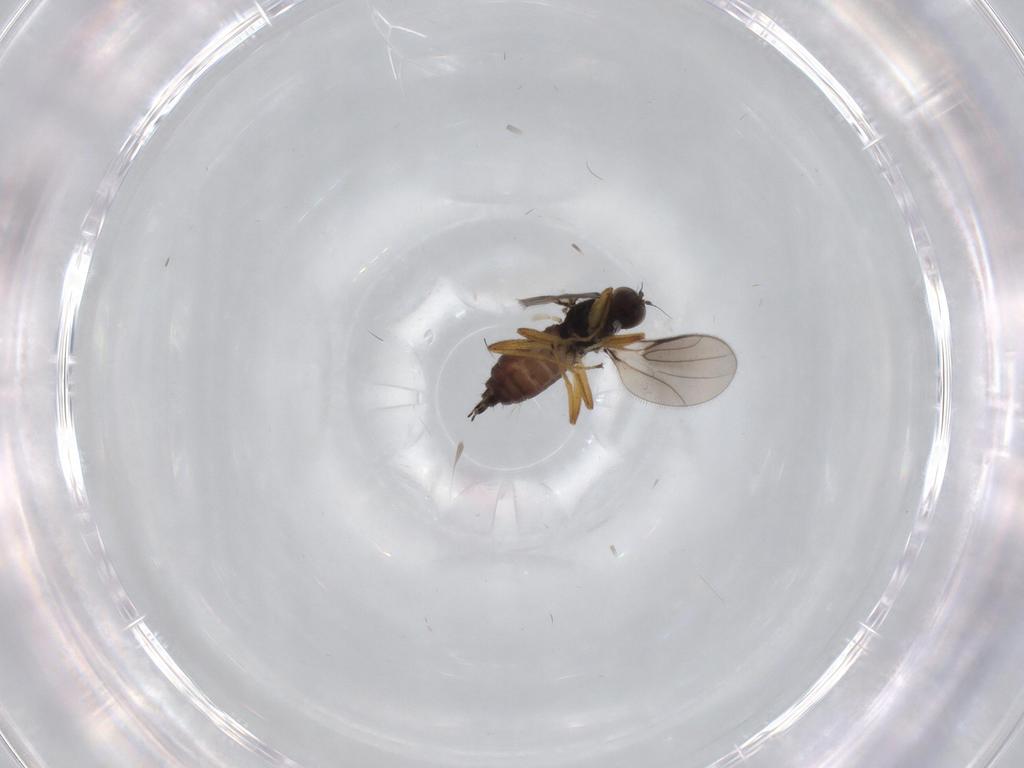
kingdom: Animalia
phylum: Arthropoda
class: Insecta
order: Diptera
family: Hybotidae
